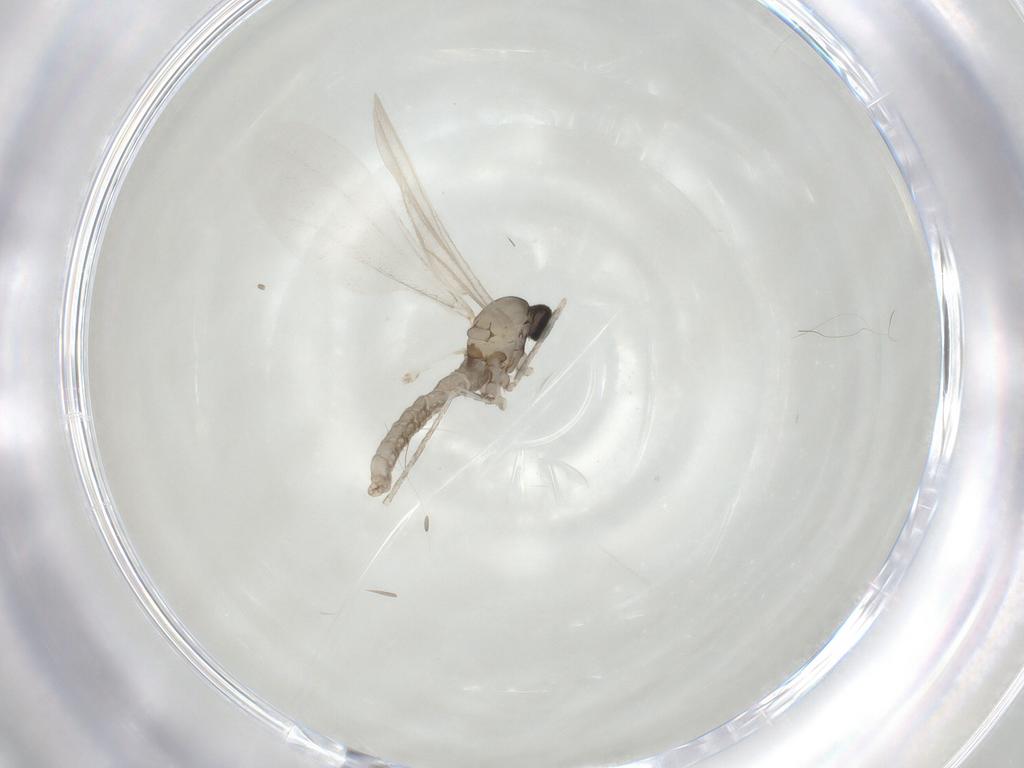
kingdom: Animalia
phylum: Arthropoda
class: Insecta
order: Diptera
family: Cecidomyiidae
